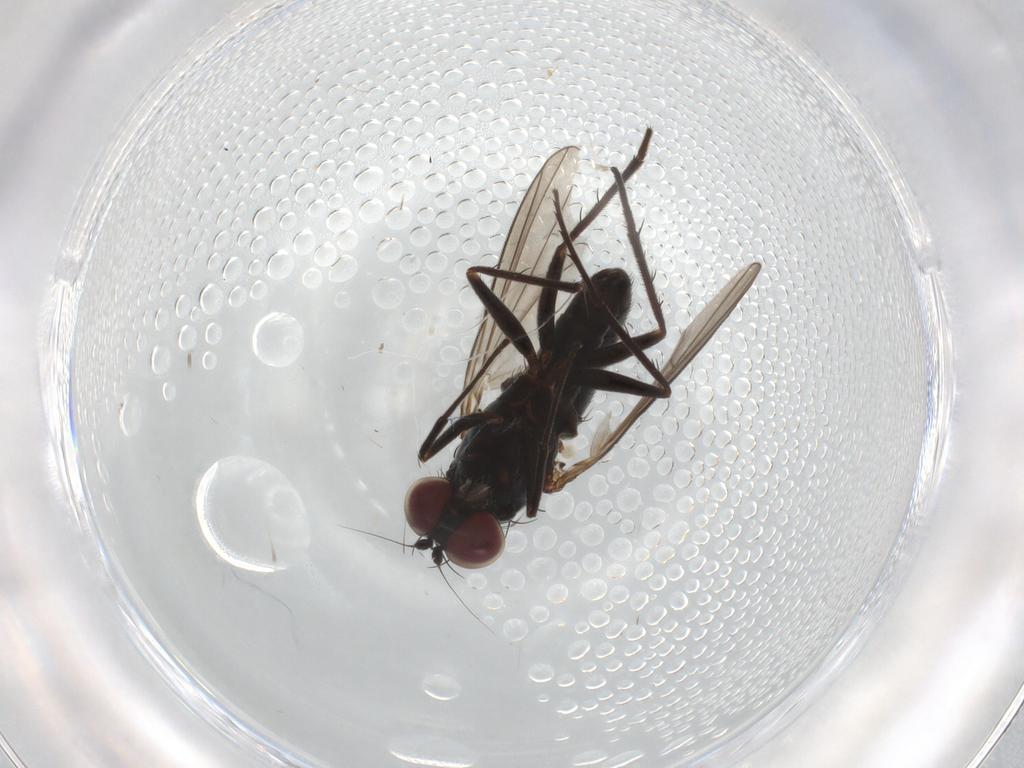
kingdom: Animalia
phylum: Arthropoda
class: Insecta
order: Diptera
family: Dolichopodidae
